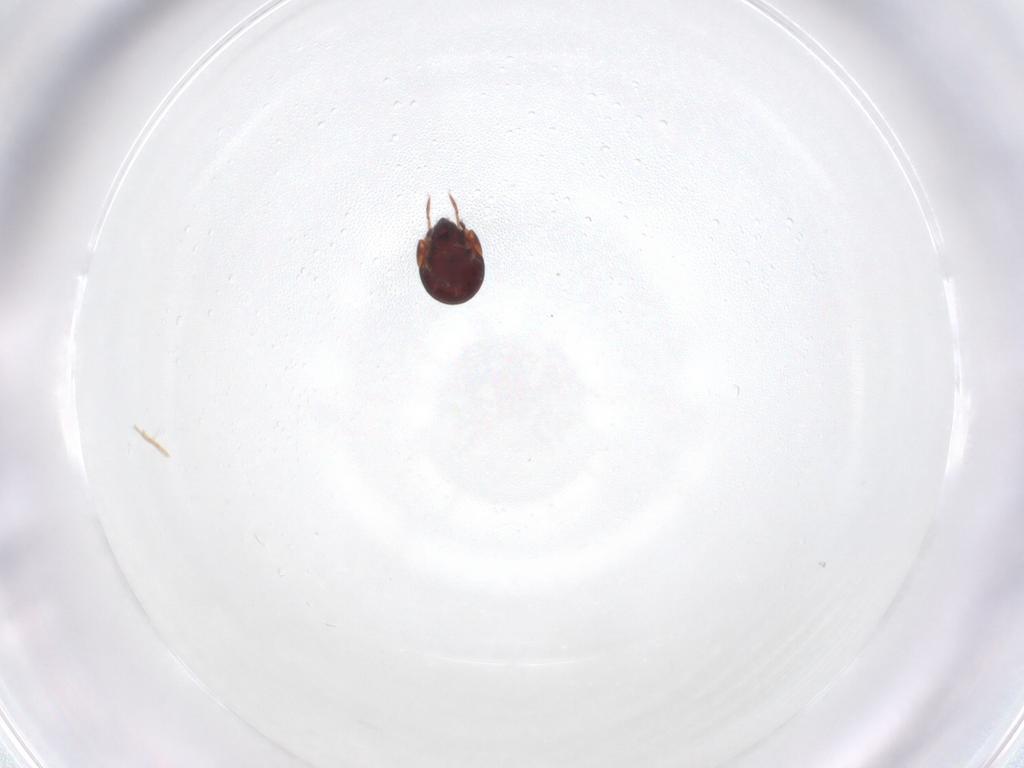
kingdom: Animalia
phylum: Arthropoda
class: Arachnida
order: Sarcoptiformes
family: Humerobatidae
